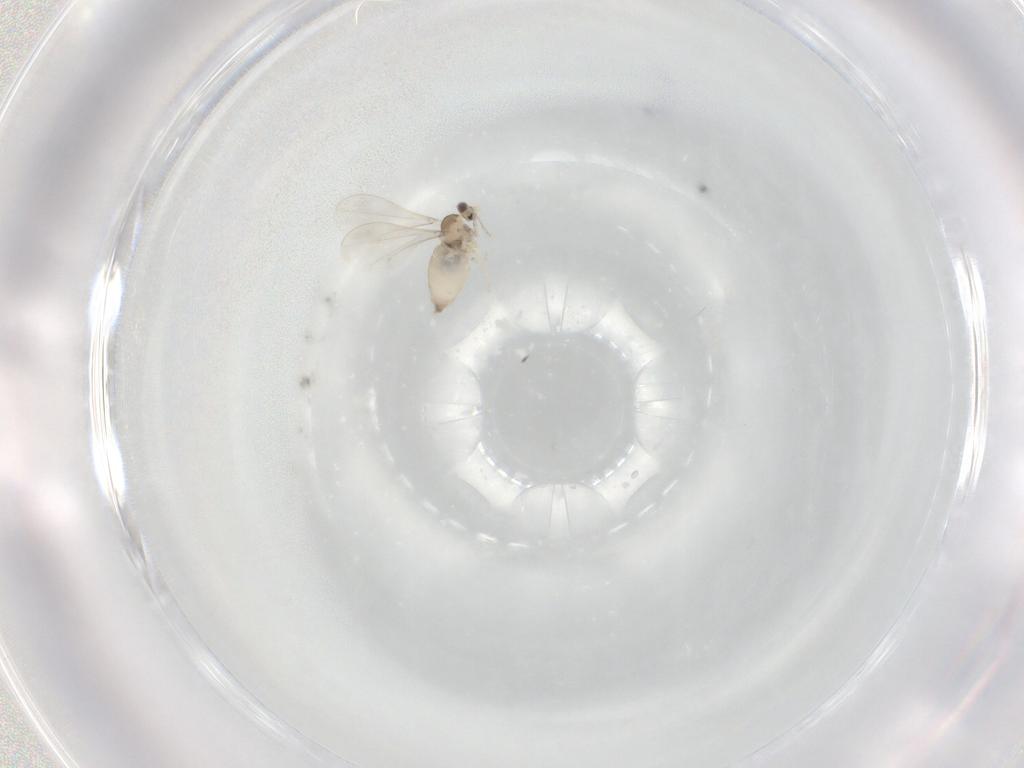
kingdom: Animalia
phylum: Arthropoda
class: Insecta
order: Diptera
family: Cecidomyiidae
